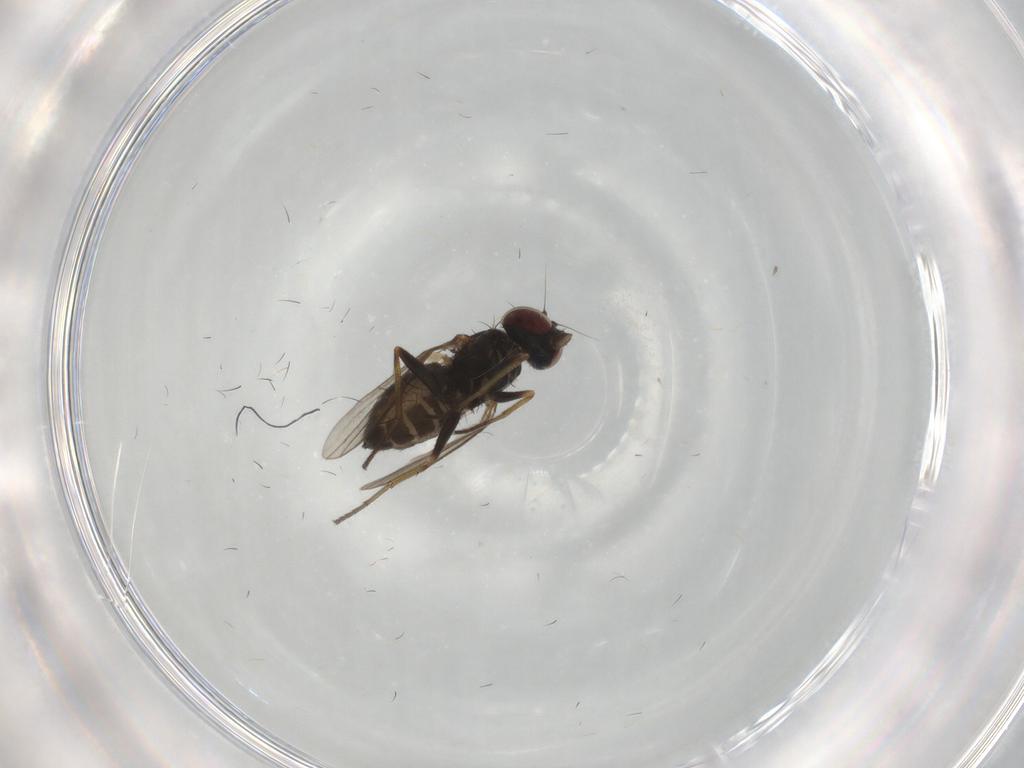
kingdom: Animalia
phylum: Arthropoda
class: Insecta
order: Diptera
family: Dolichopodidae
